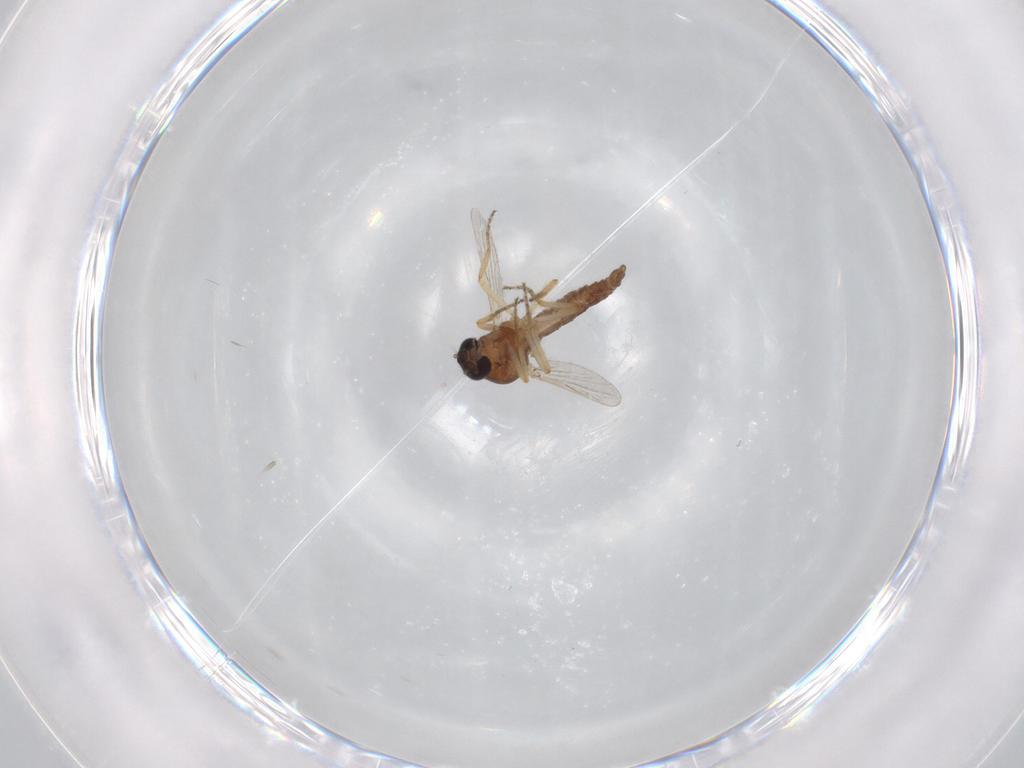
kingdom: Animalia
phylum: Arthropoda
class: Insecta
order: Diptera
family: Ceratopogonidae
